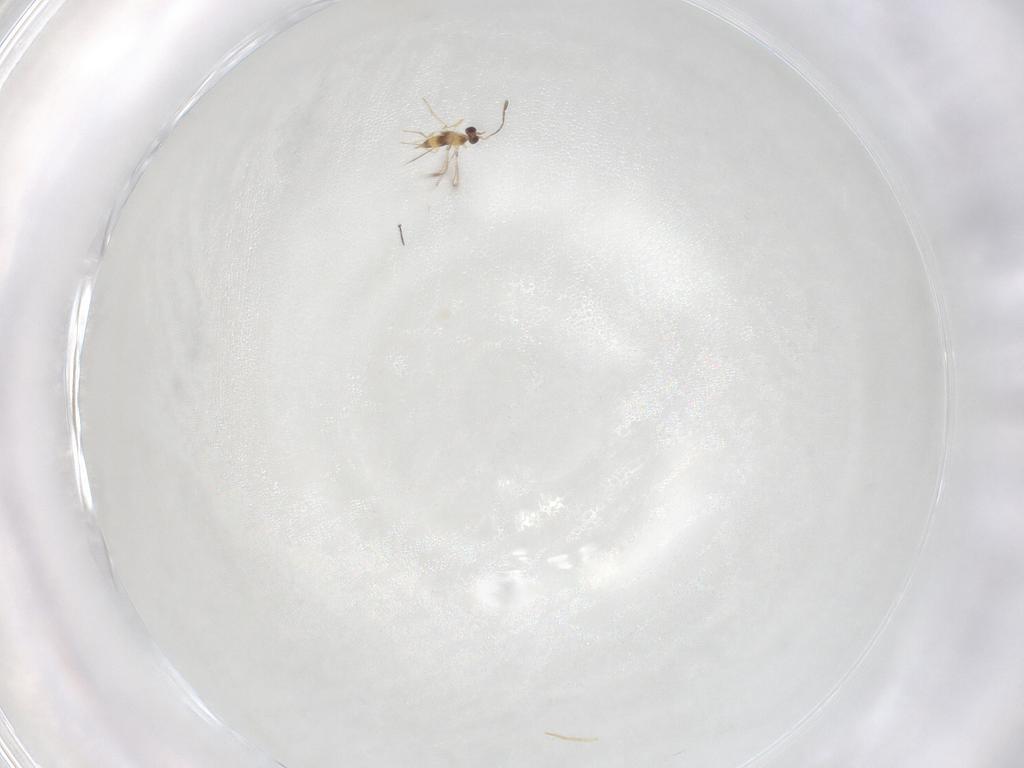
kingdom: Animalia
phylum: Arthropoda
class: Insecta
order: Hymenoptera
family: Mymaridae
